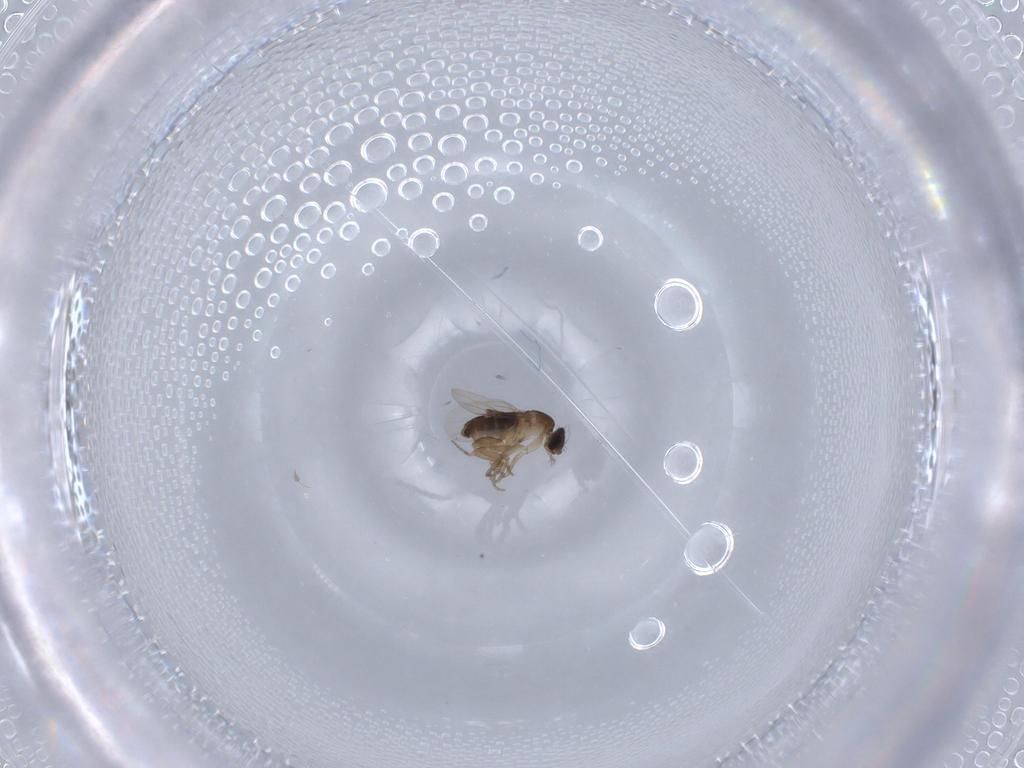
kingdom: Animalia
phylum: Arthropoda
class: Insecta
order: Diptera
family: Phoridae
